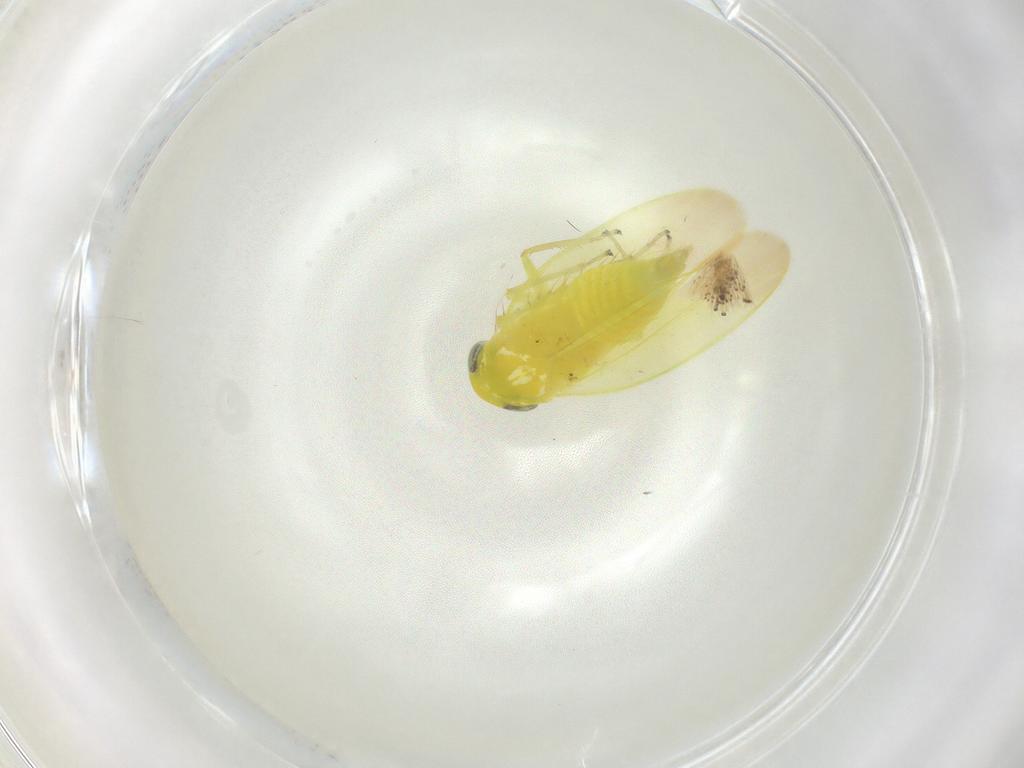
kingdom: Animalia
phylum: Arthropoda
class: Insecta
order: Hemiptera
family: Cicadellidae
